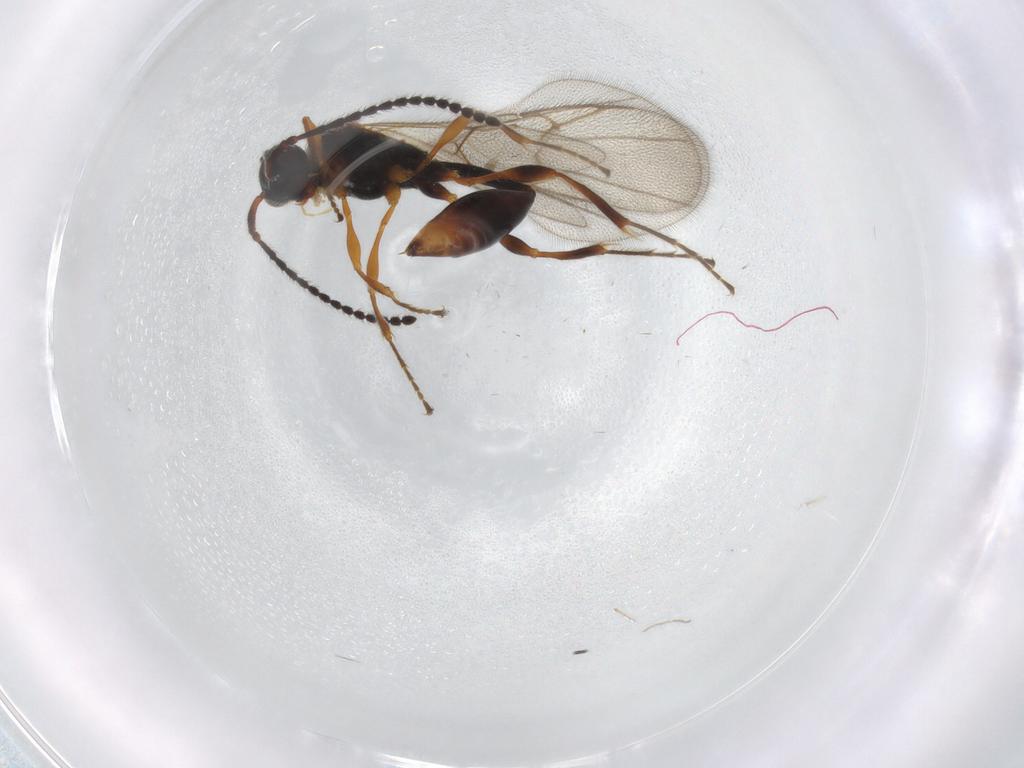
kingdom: Animalia
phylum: Arthropoda
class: Insecta
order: Hymenoptera
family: Diapriidae
